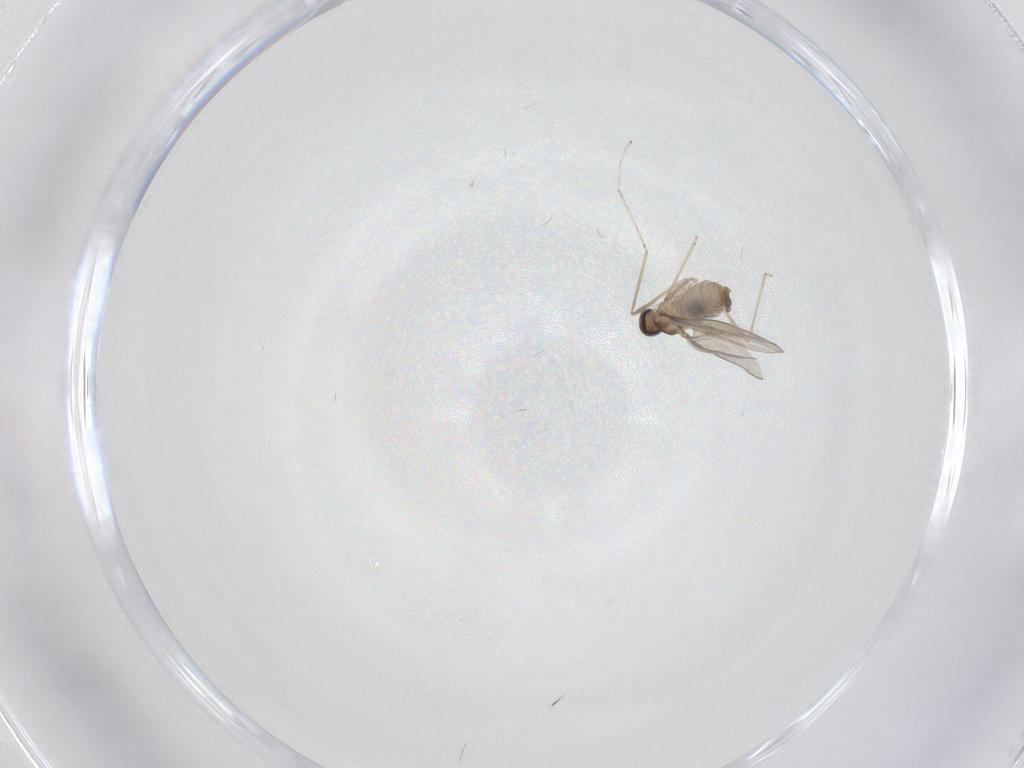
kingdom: Animalia
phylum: Arthropoda
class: Insecta
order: Diptera
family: Cecidomyiidae
